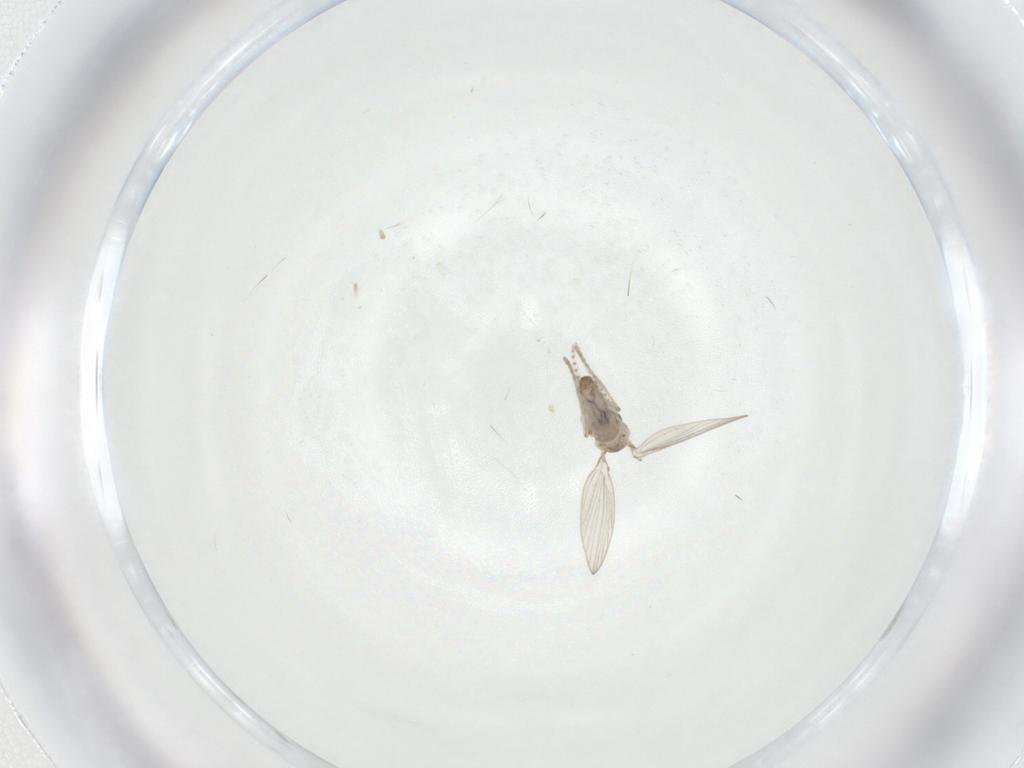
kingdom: Animalia
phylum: Arthropoda
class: Insecta
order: Diptera
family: Psychodidae
